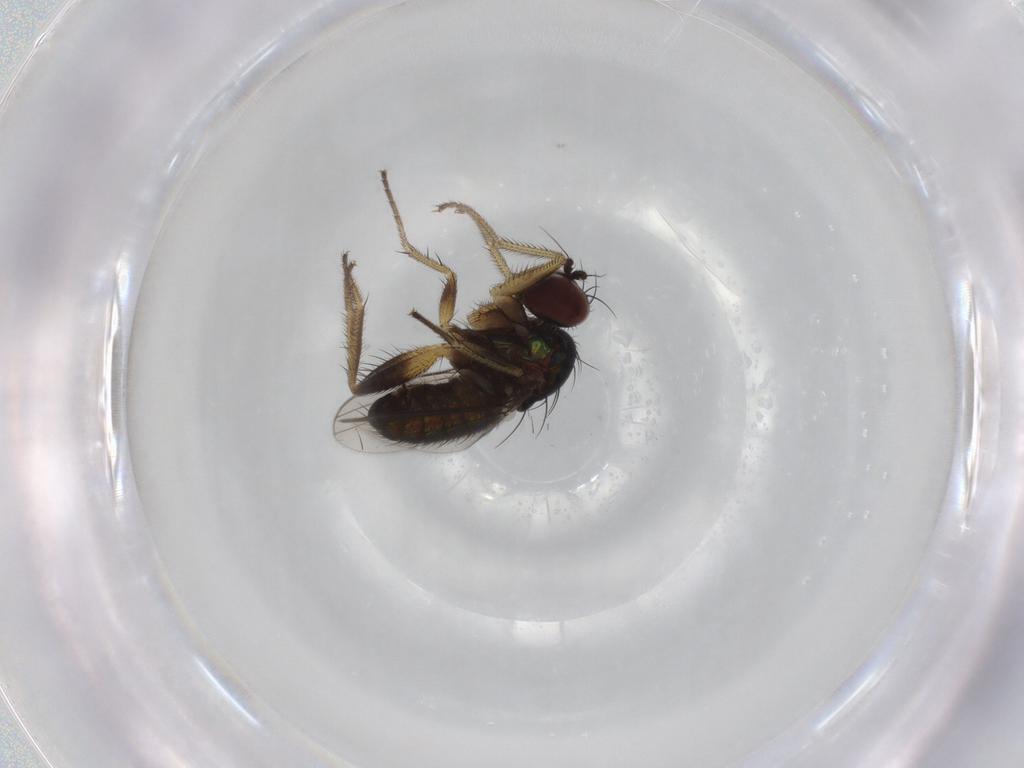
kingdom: Animalia
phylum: Arthropoda
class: Insecta
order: Diptera
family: Dolichopodidae
